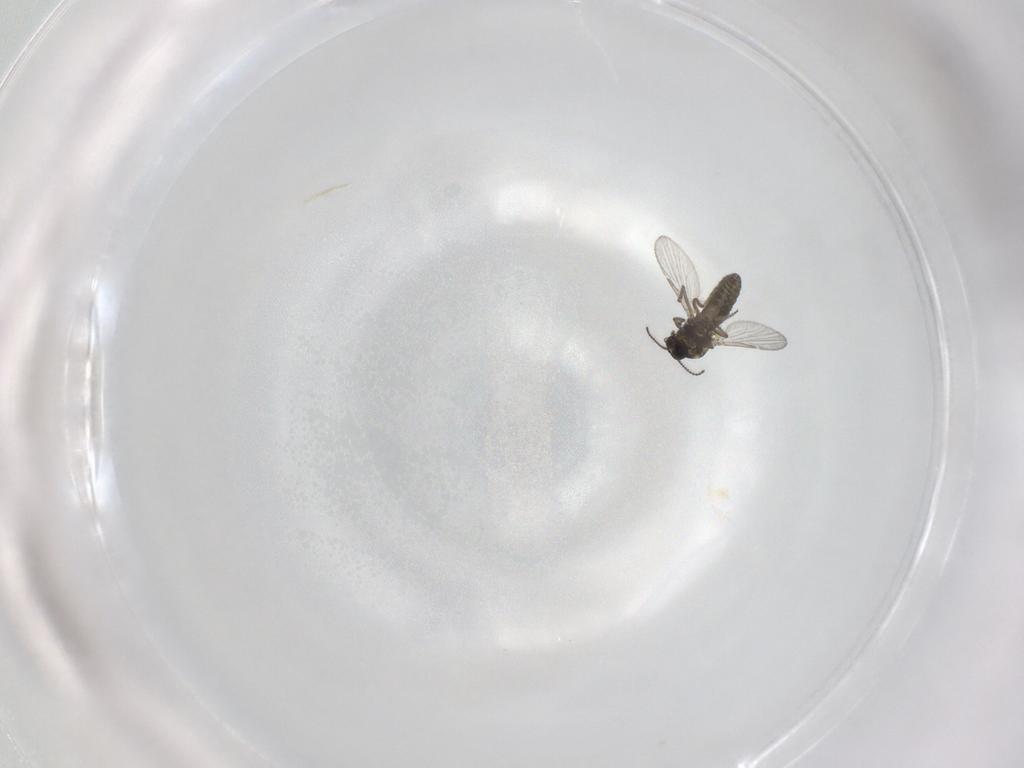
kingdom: Animalia
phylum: Arthropoda
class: Insecta
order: Diptera
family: Ceratopogonidae
